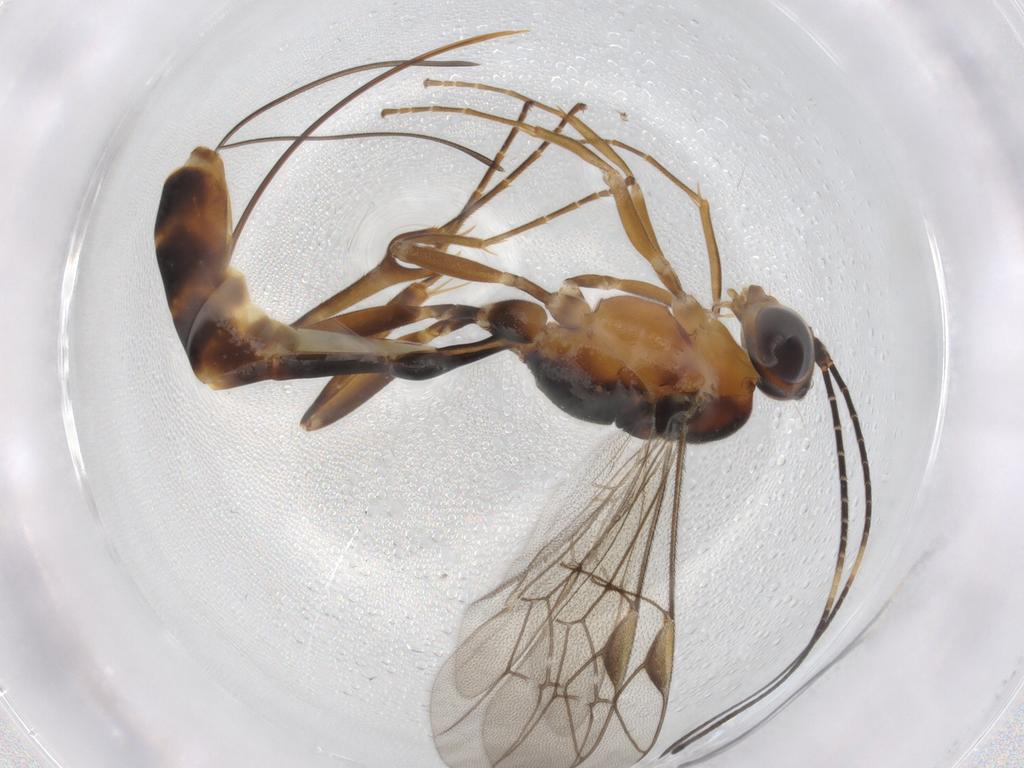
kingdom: Animalia
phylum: Arthropoda
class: Insecta
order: Hymenoptera
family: Ichneumonidae
